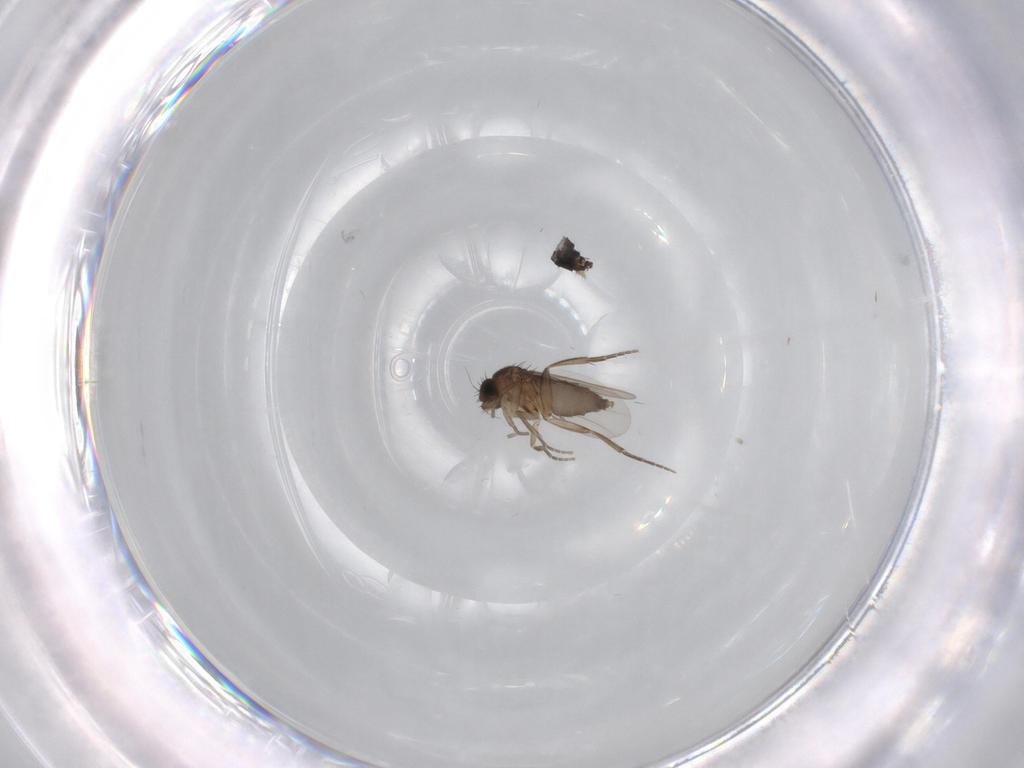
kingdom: Animalia
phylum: Arthropoda
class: Insecta
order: Diptera
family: Phoridae
